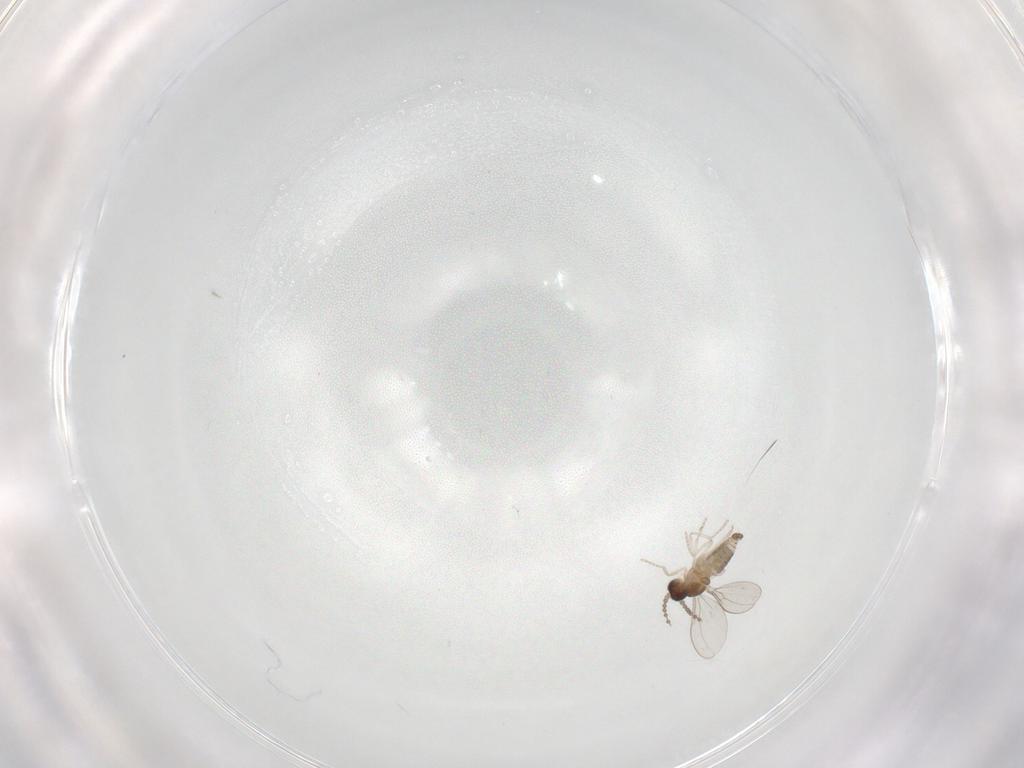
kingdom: Animalia
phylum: Arthropoda
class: Insecta
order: Diptera
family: Cecidomyiidae
